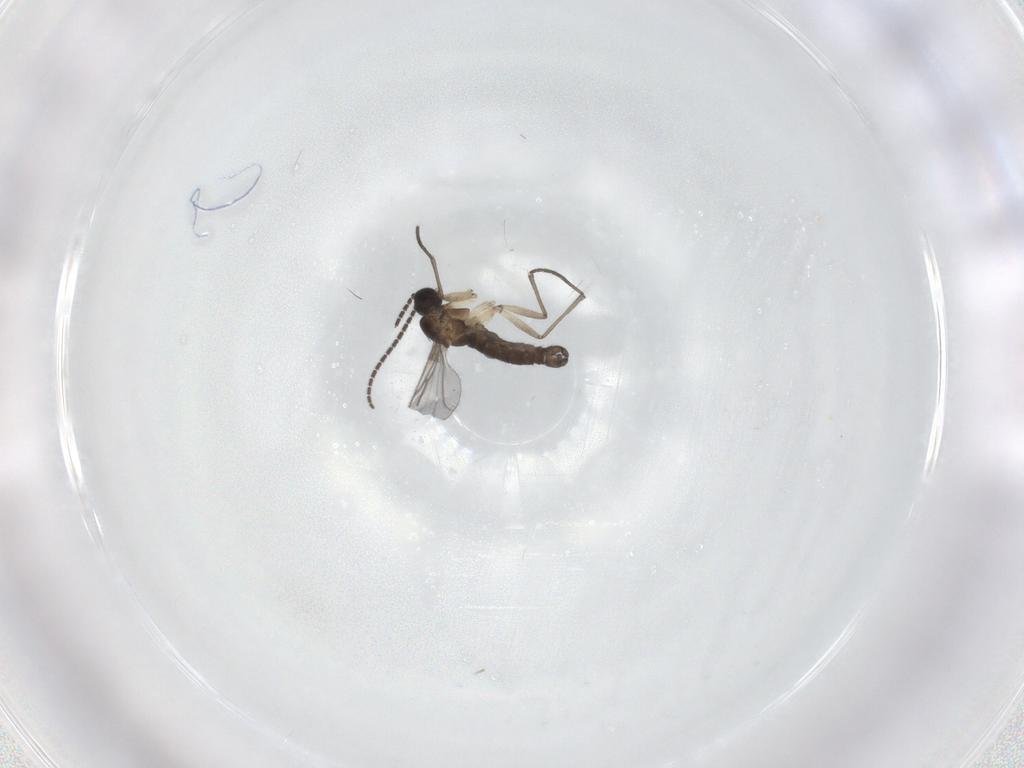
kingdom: Animalia
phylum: Arthropoda
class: Insecta
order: Diptera
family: Sciaridae
